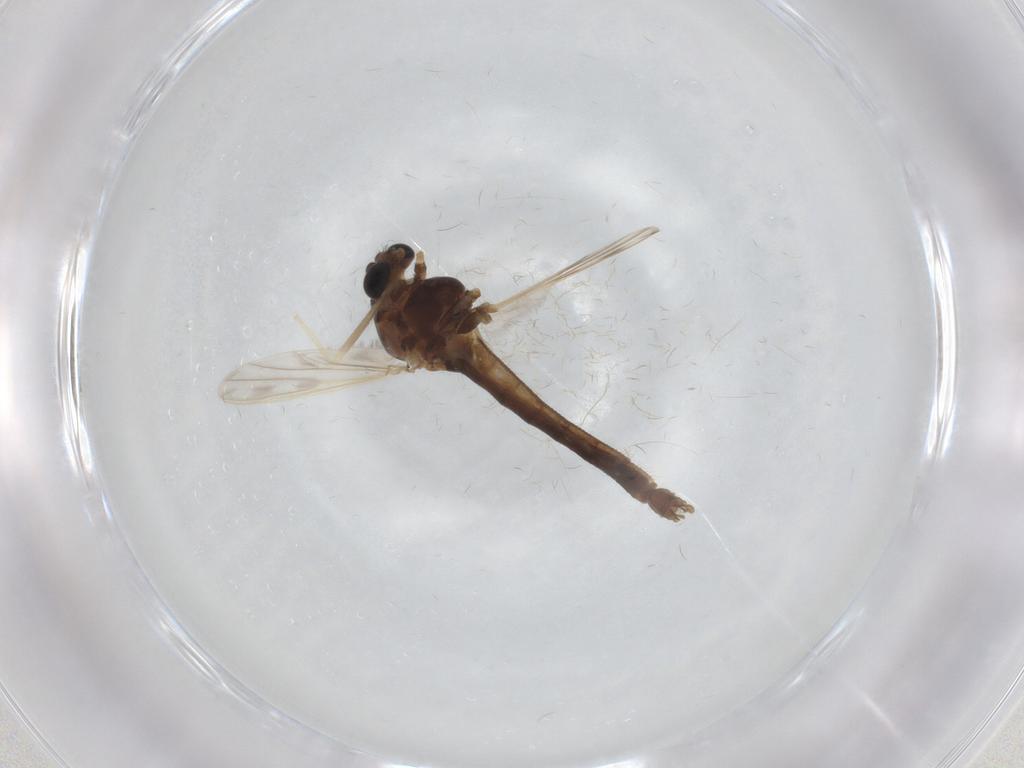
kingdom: Animalia
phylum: Arthropoda
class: Insecta
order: Diptera
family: Chironomidae
